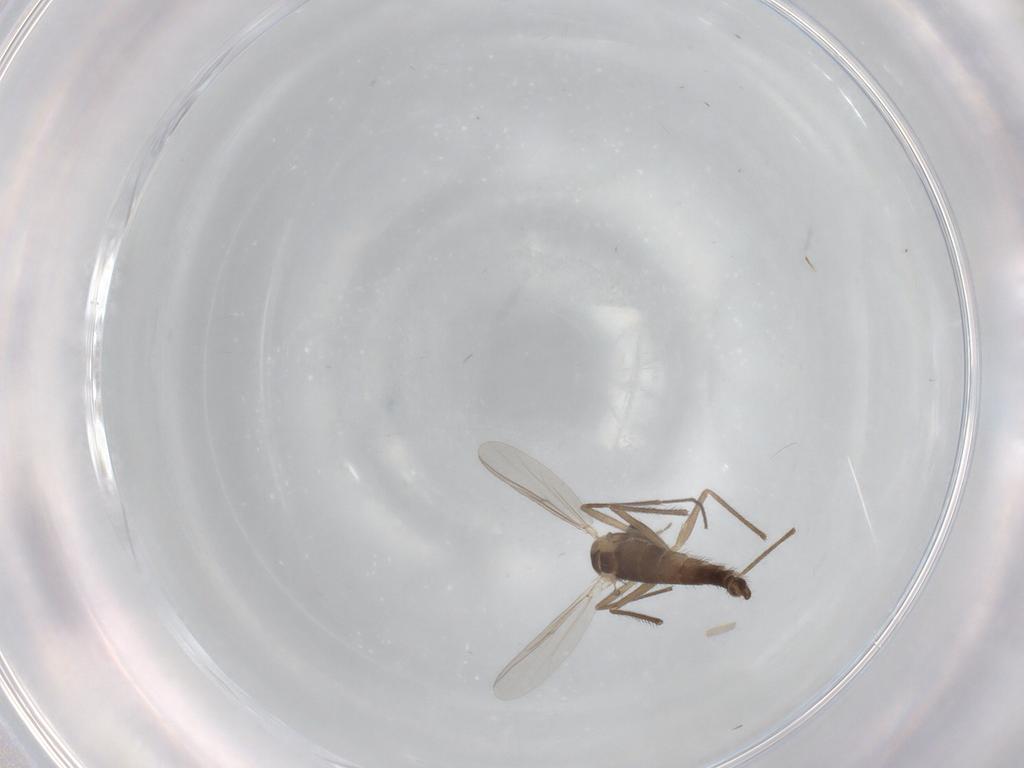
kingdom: Animalia
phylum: Arthropoda
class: Insecta
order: Diptera
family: Chironomidae
